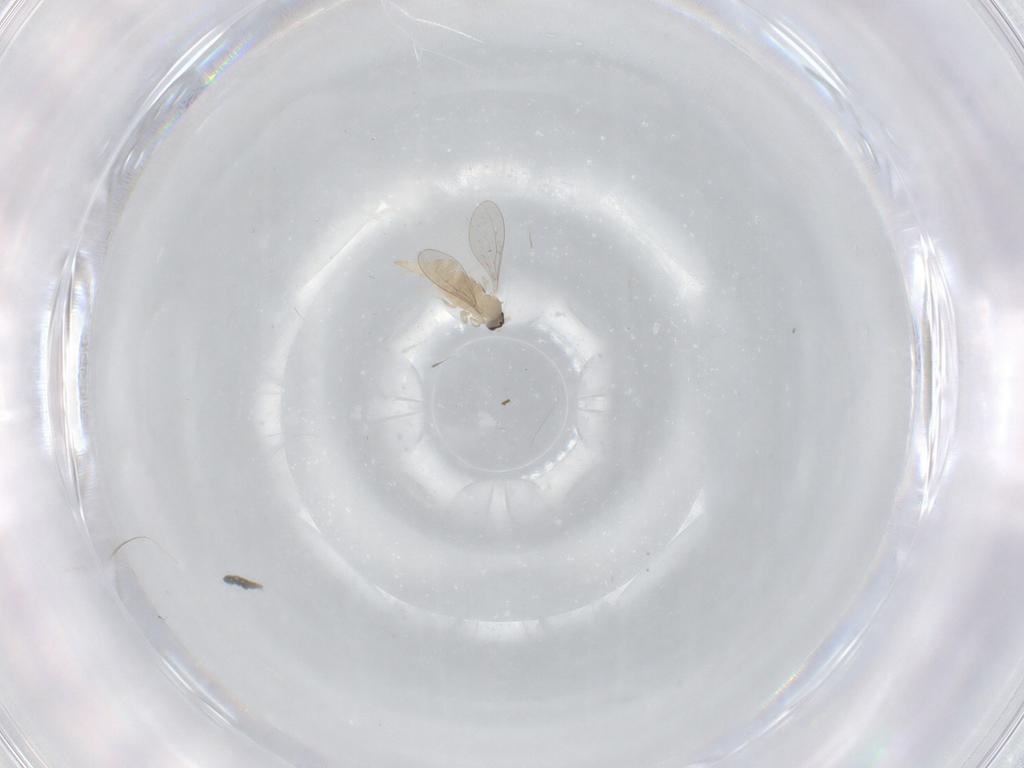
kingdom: Animalia
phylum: Arthropoda
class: Insecta
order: Diptera
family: Cecidomyiidae
